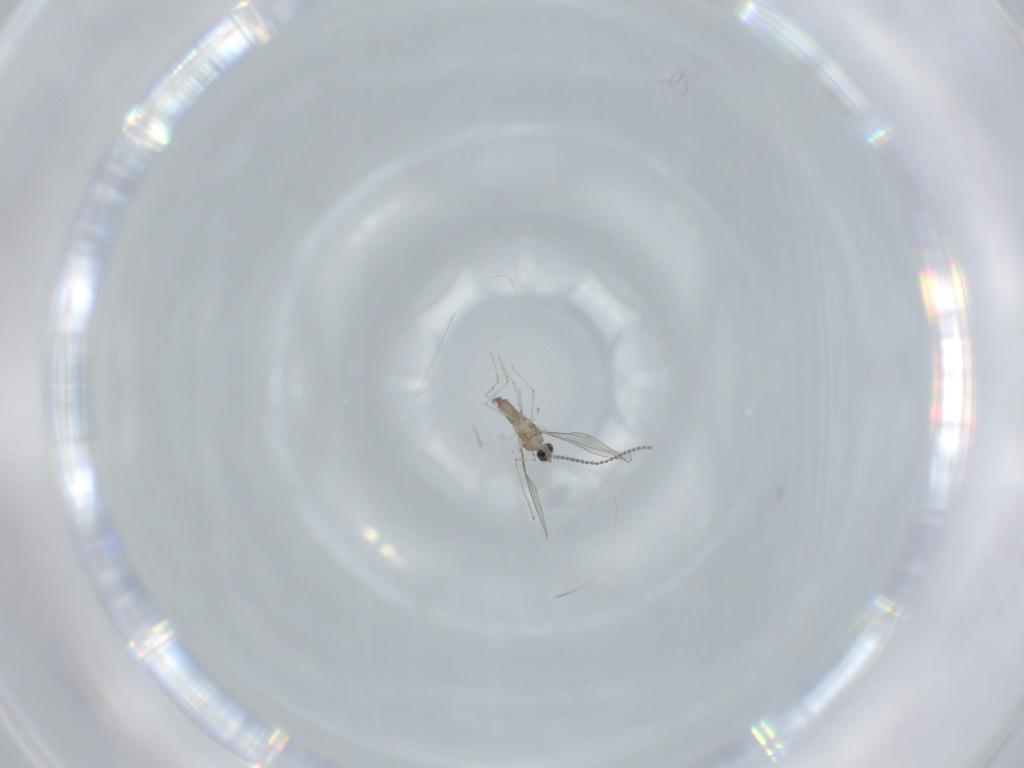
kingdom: Animalia
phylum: Arthropoda
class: Insecta
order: Diptera
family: Cecidomyiidae
